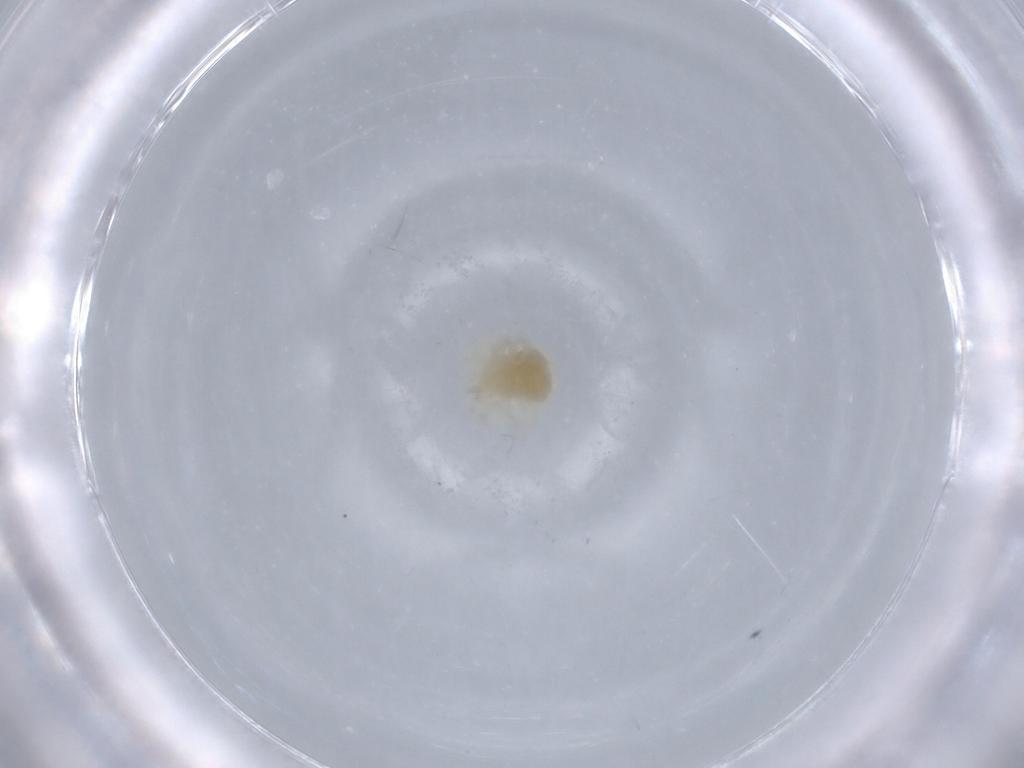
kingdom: Animalia
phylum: Arthropoda
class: Arachnida
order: Trombidiformes
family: Anystidae
